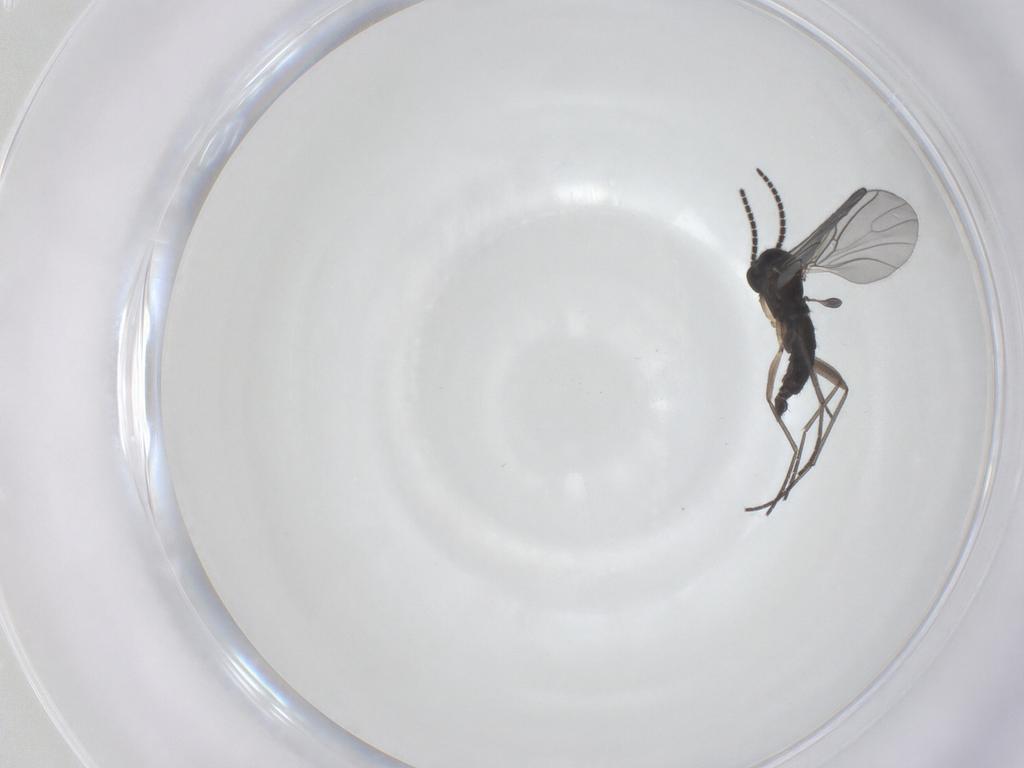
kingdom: Animalia
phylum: Arthropoda
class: Insecta
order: Diptera
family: Sciaridae
